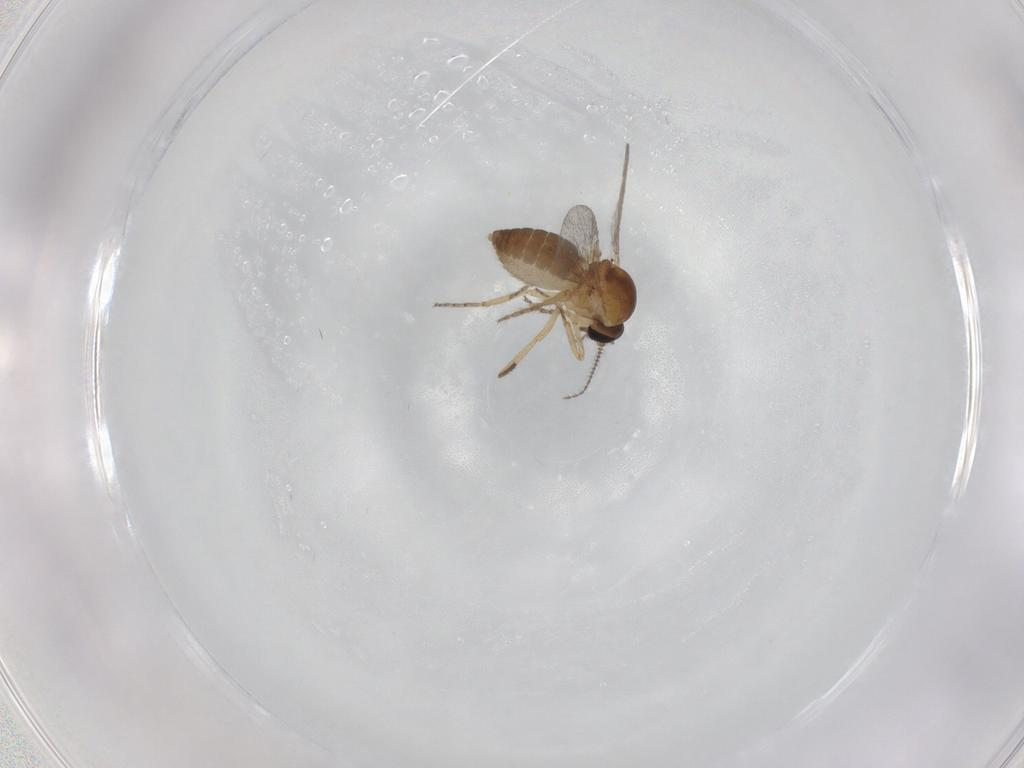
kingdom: Animalia
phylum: Arthropoda
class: Insecta
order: Diptera
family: Ceratopogonidae
